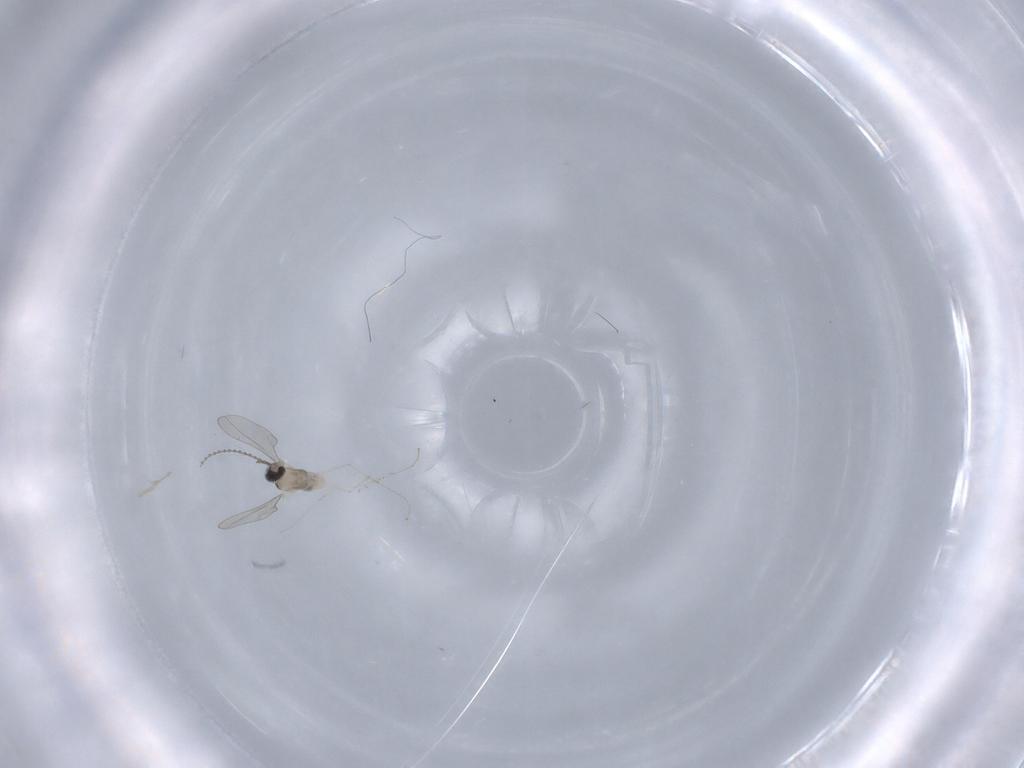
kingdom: Animalia
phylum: Arthropoda
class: Insecta
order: Diptera
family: Cecidomyiidae
